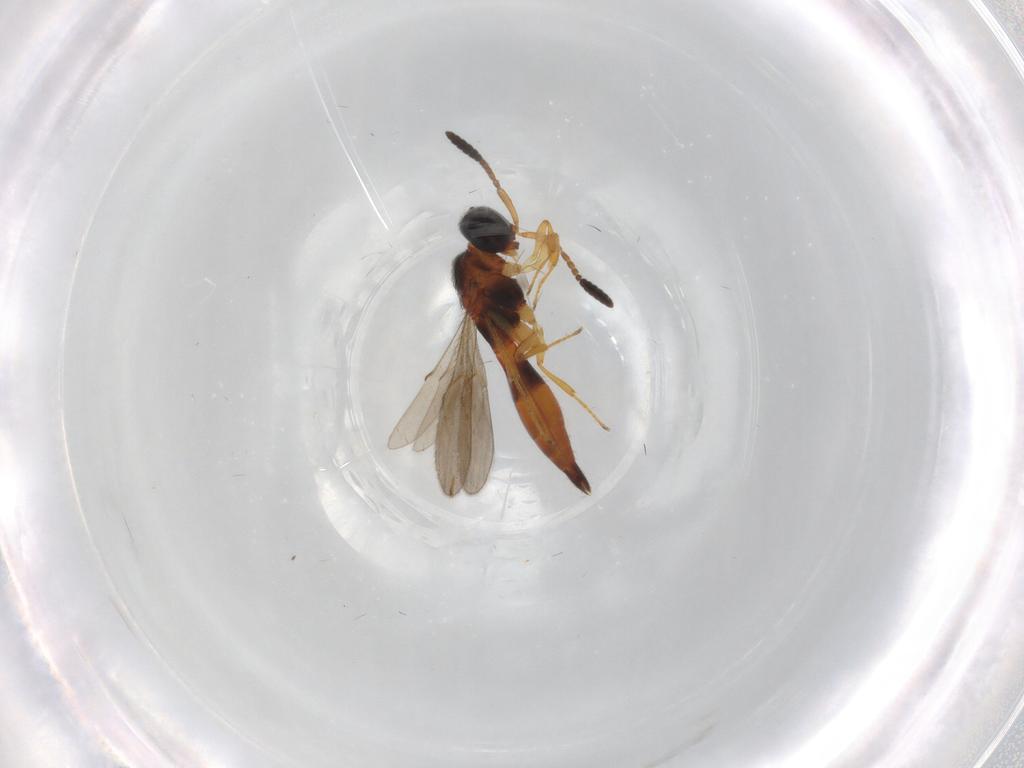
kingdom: Animalia
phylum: Arthropoda
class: Insecta
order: Hymenoptera
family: Scelionidae
